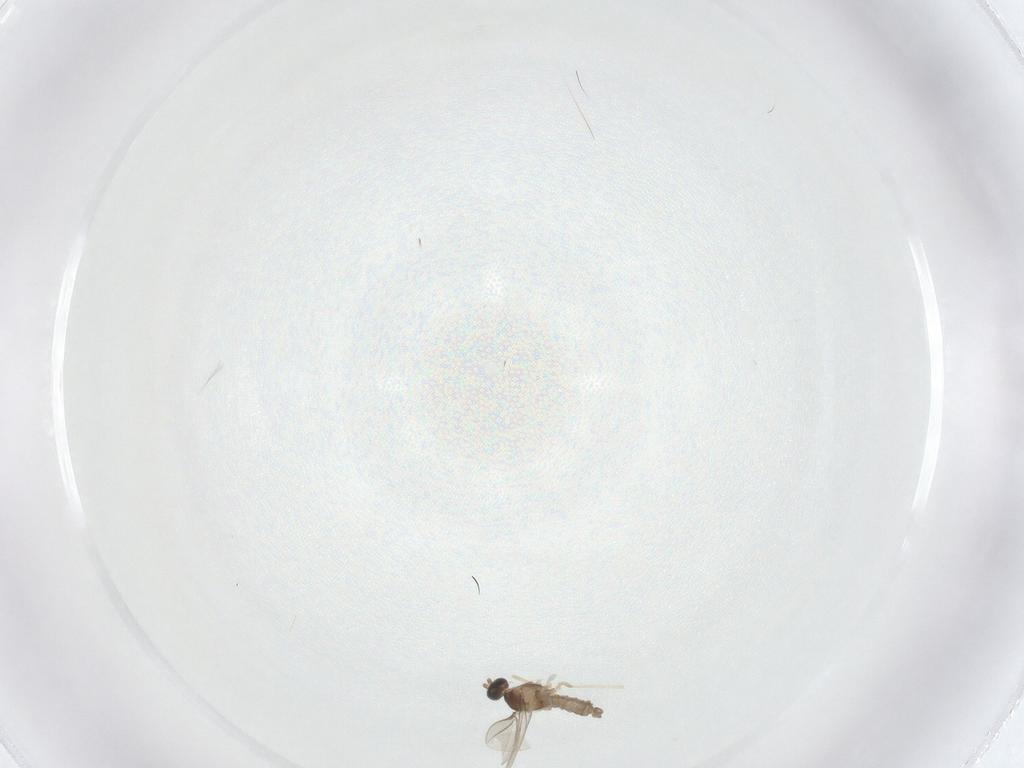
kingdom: Animalia
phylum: Arthropoda
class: Insecta
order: Diptera
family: Cecidomyiidae
